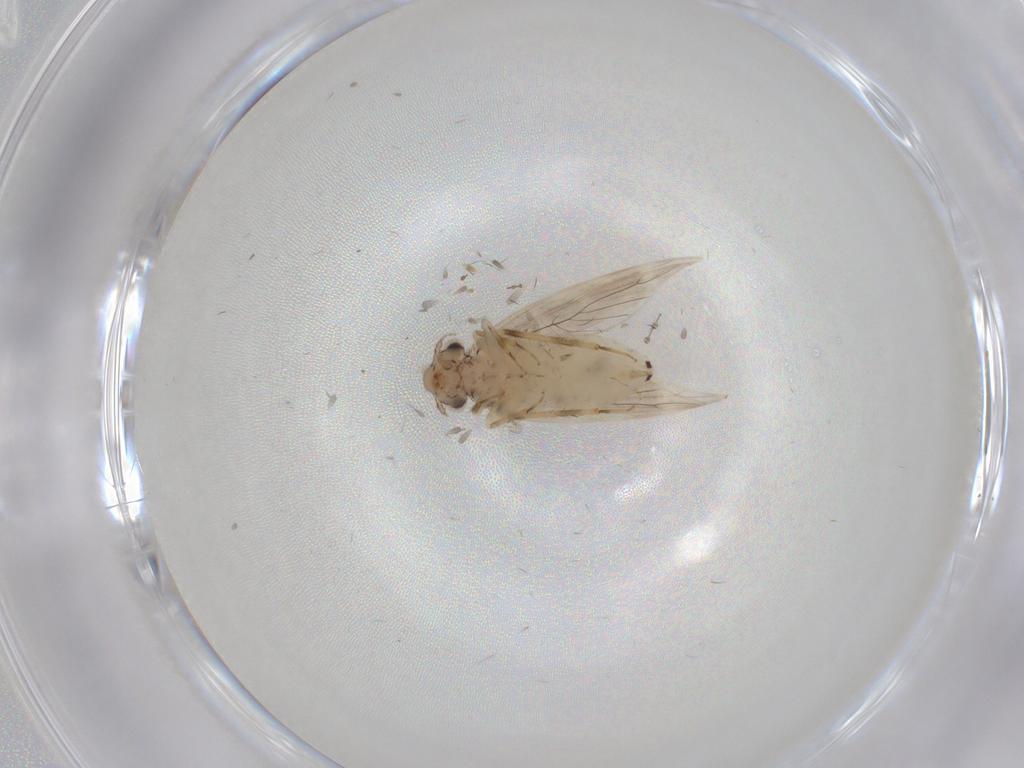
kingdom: Animalia
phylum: Arthropoda
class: Insecta
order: Psocodea
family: Lepidopsocidae
